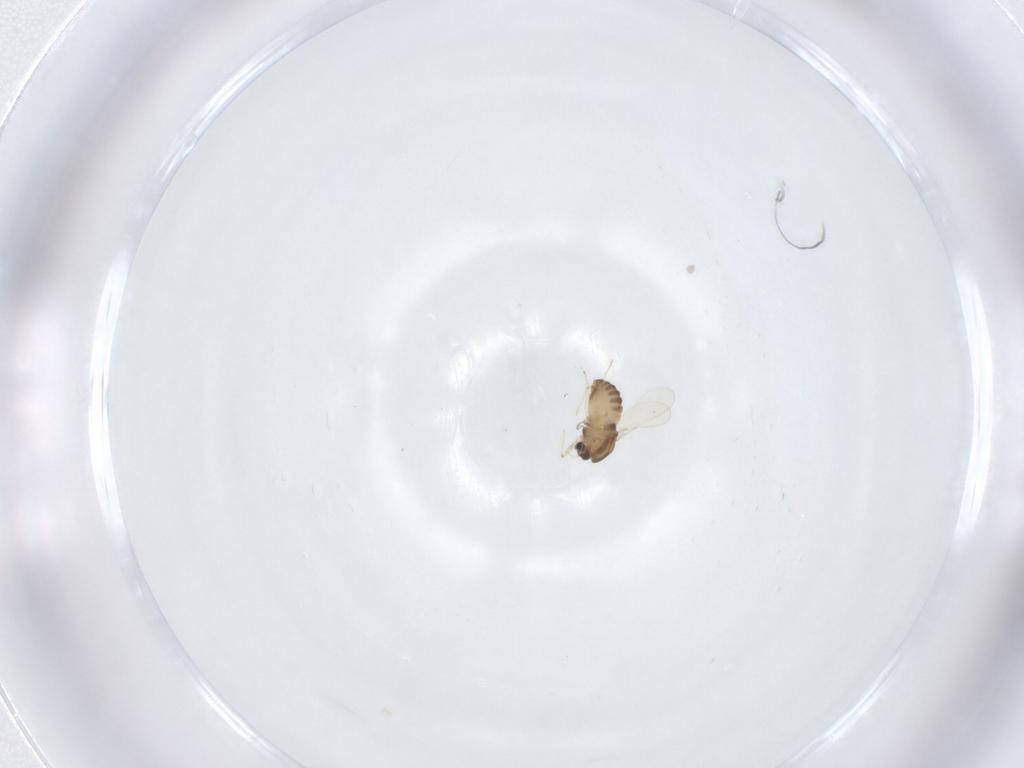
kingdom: Animalia
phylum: Arthropoda
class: Insecta
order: Diptera
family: Chironomidae
